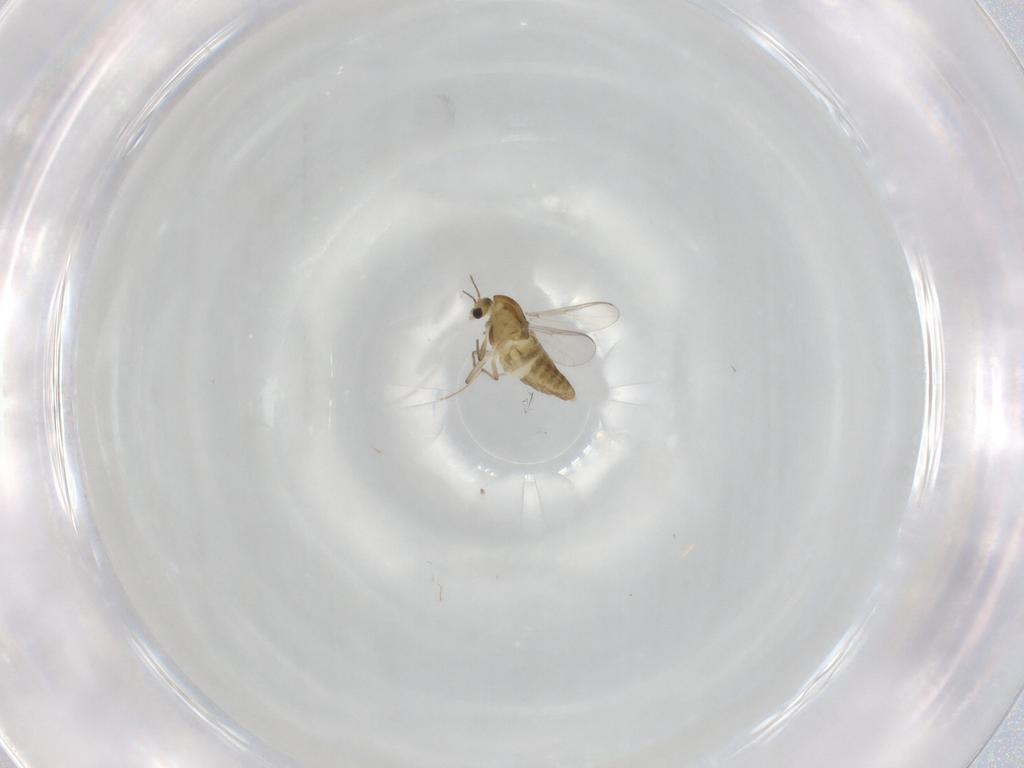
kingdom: Animalia
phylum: Arthropoda
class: Insecta
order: Diptera
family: Chironomidae
